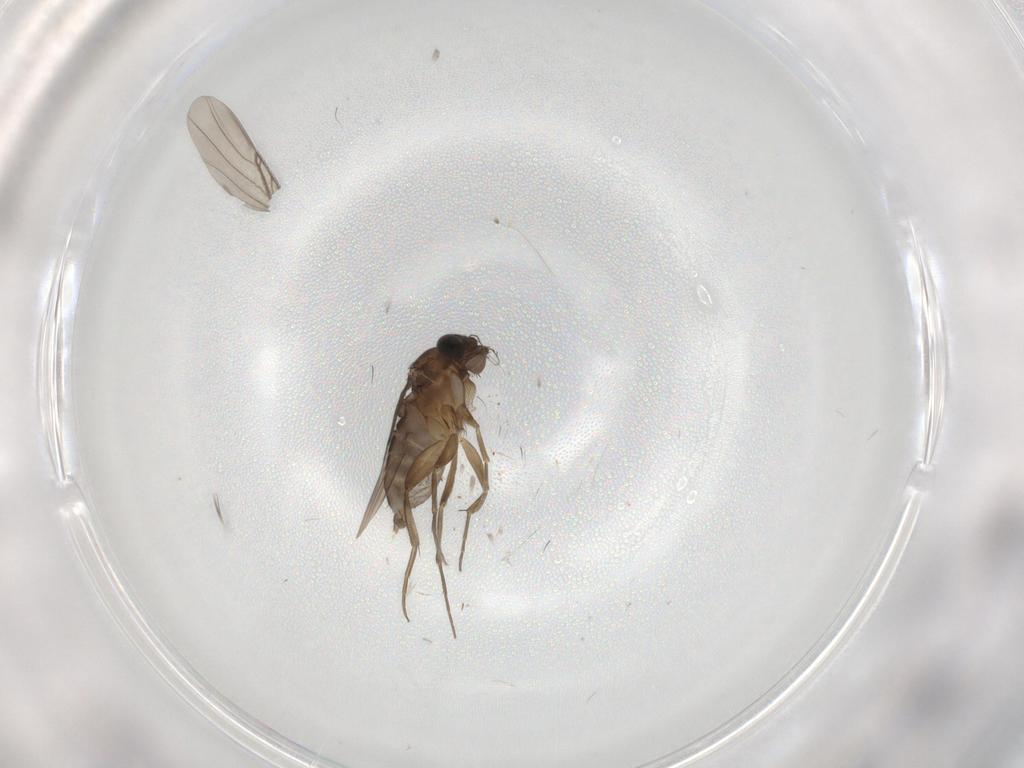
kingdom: Animalia
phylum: Arthropoda
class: Insecta
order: Diptera
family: Phoridae
